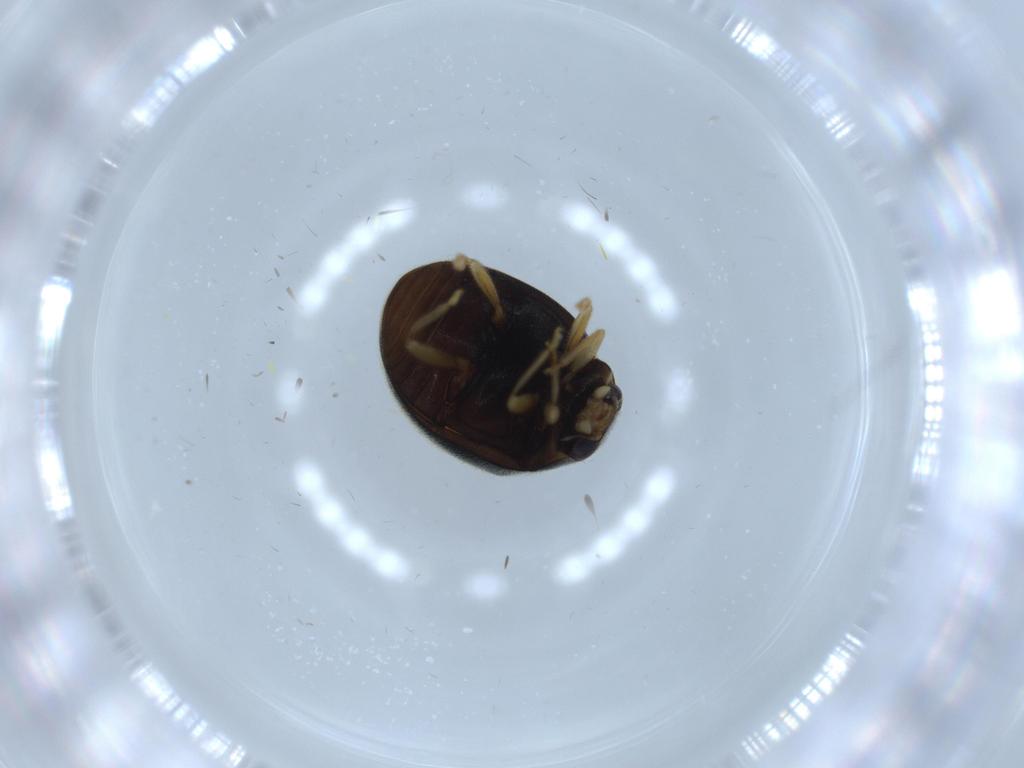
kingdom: Animalia
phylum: Arthropoda
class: Insecta
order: Coleoptera
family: Coccinellidae
